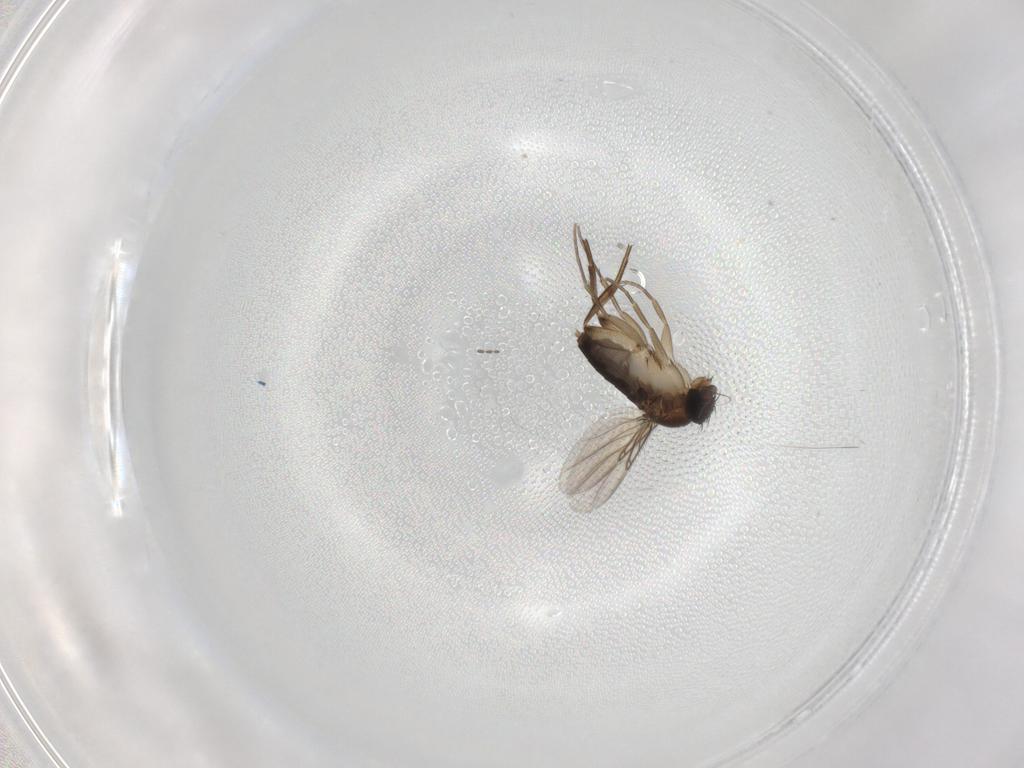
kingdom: Animalia
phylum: Arthropoda
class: Insecta
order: Diptera
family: Phoridae
